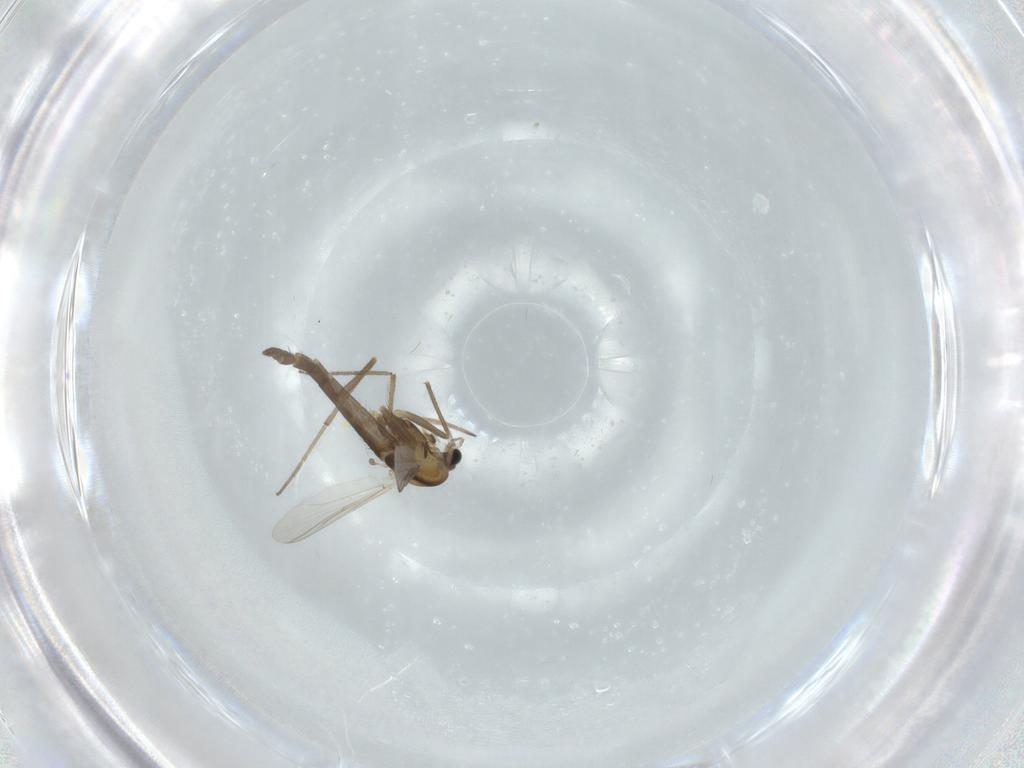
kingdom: Animalia
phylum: Arthropoda
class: Insecta
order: Diptera
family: Chironomidae
